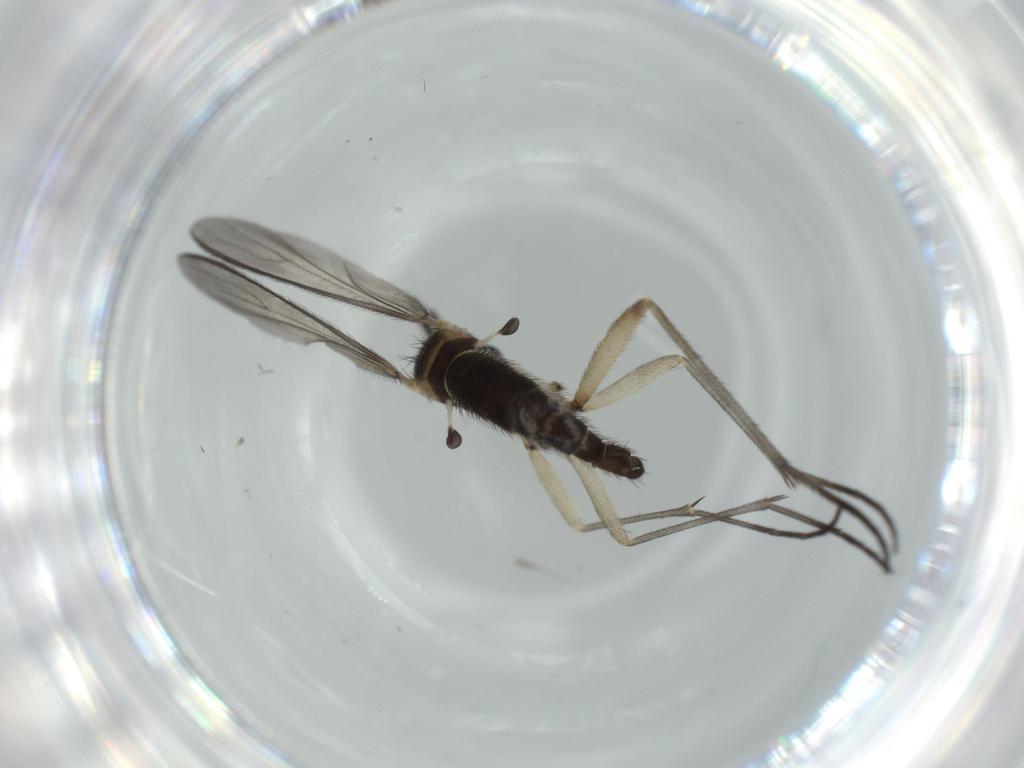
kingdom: Animalia
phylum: Arthropoda
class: Insecta
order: Diptera
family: Sciaridae
